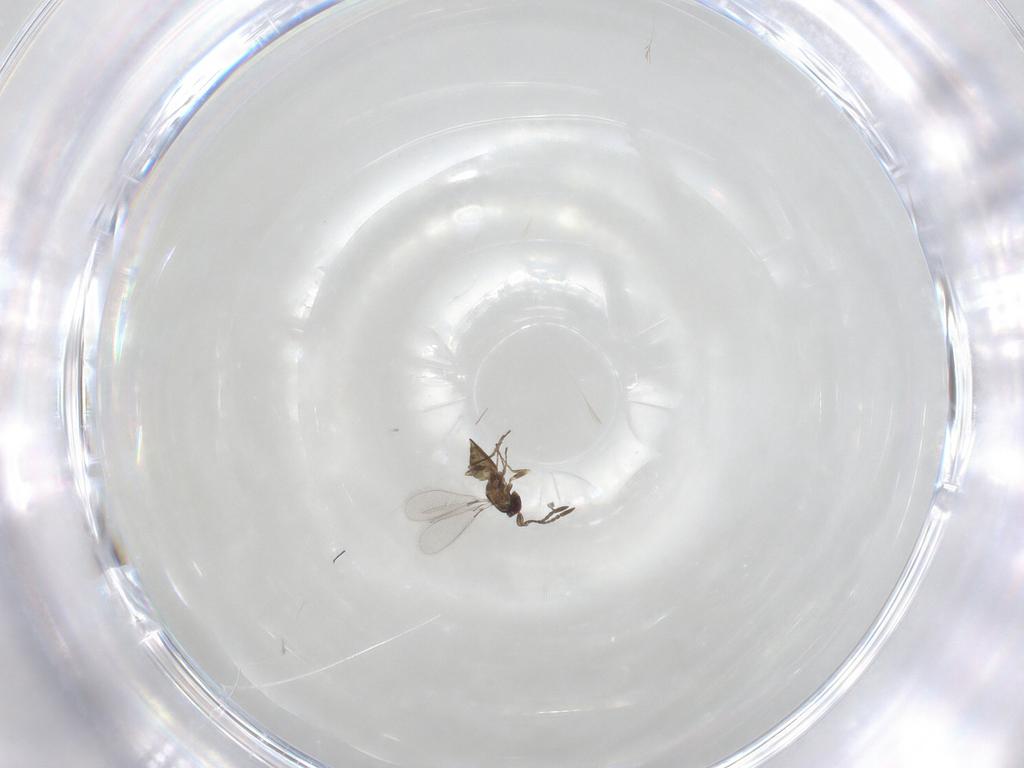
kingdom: Animalia
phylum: Arthropoda
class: Insecta
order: Hymenoptera
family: Mymaridae
